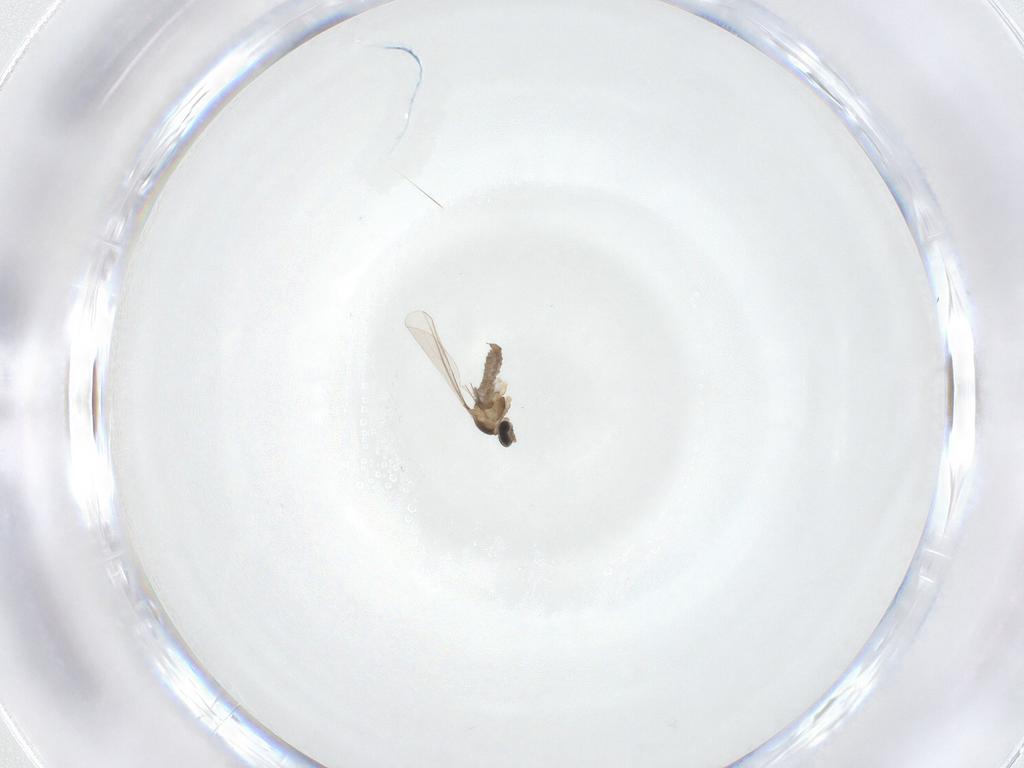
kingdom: Animalia
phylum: Arthropoda
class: Insecta
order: Diptera
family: Cecidomyiidae
